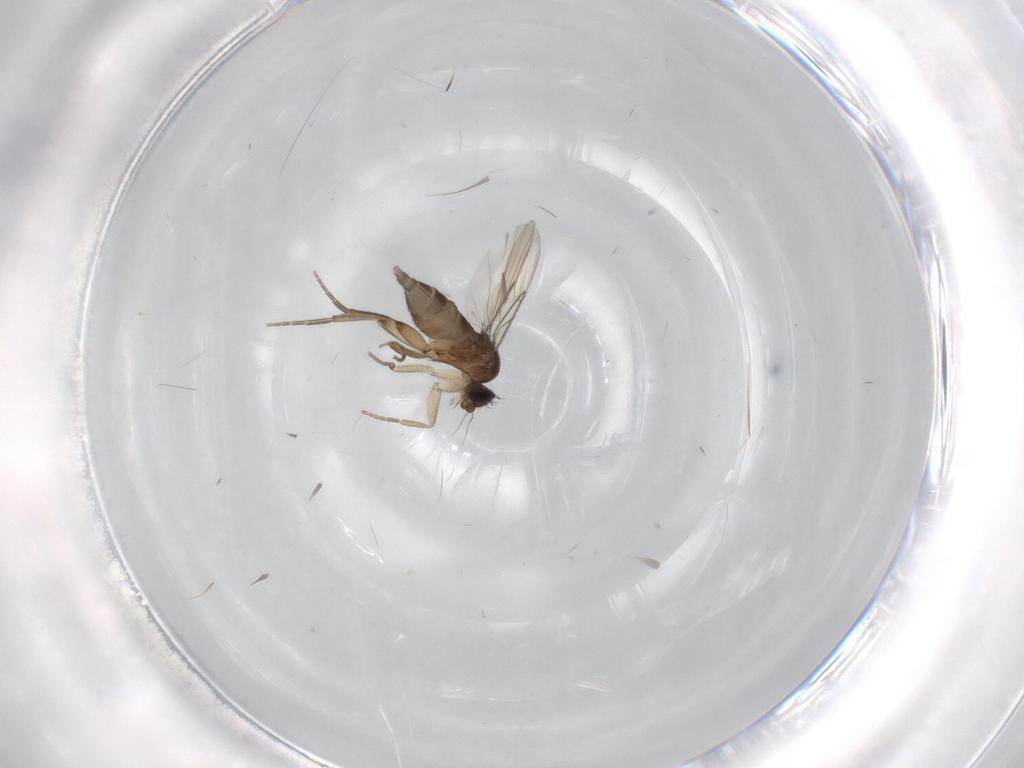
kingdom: Animalia
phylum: Arthropoda
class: Insecta
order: Diptera
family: Phoridae
